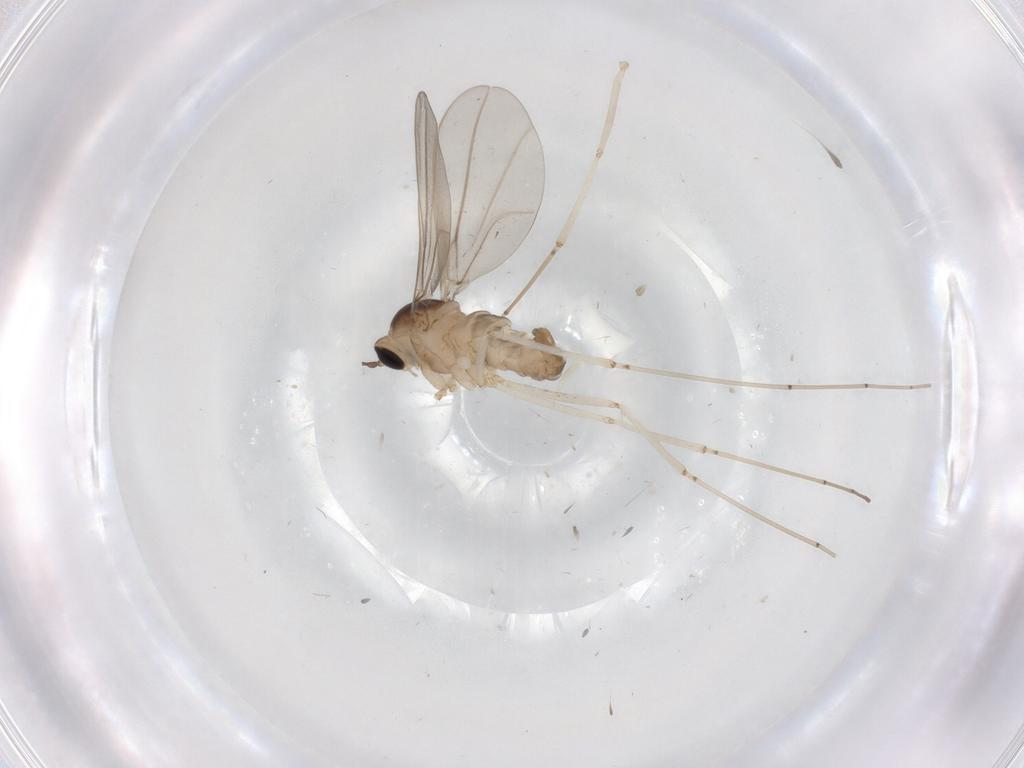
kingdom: Animalia
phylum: Arthropoda
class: Insecta
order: Diptera
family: Cecidomyiidae
